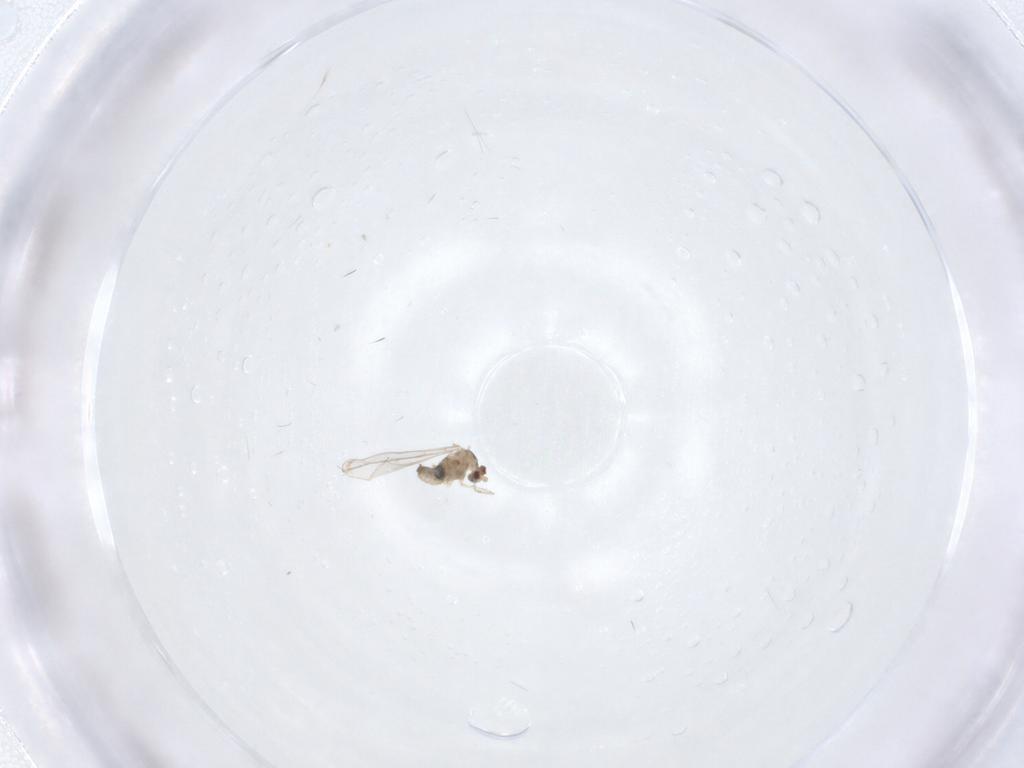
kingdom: Animalia
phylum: Arthropoda
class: Insecta
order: Diptera
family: Cecidomyiidae
